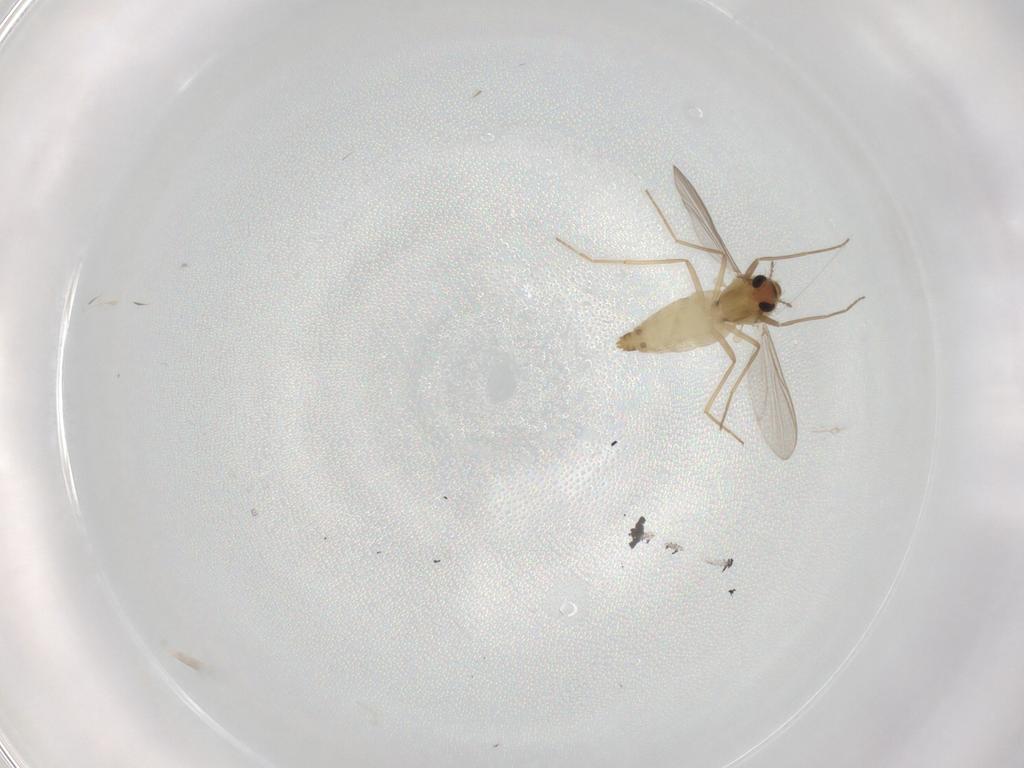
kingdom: Animalia
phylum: Arthropoda
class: Insecta
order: Diptera
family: Chironomidae
